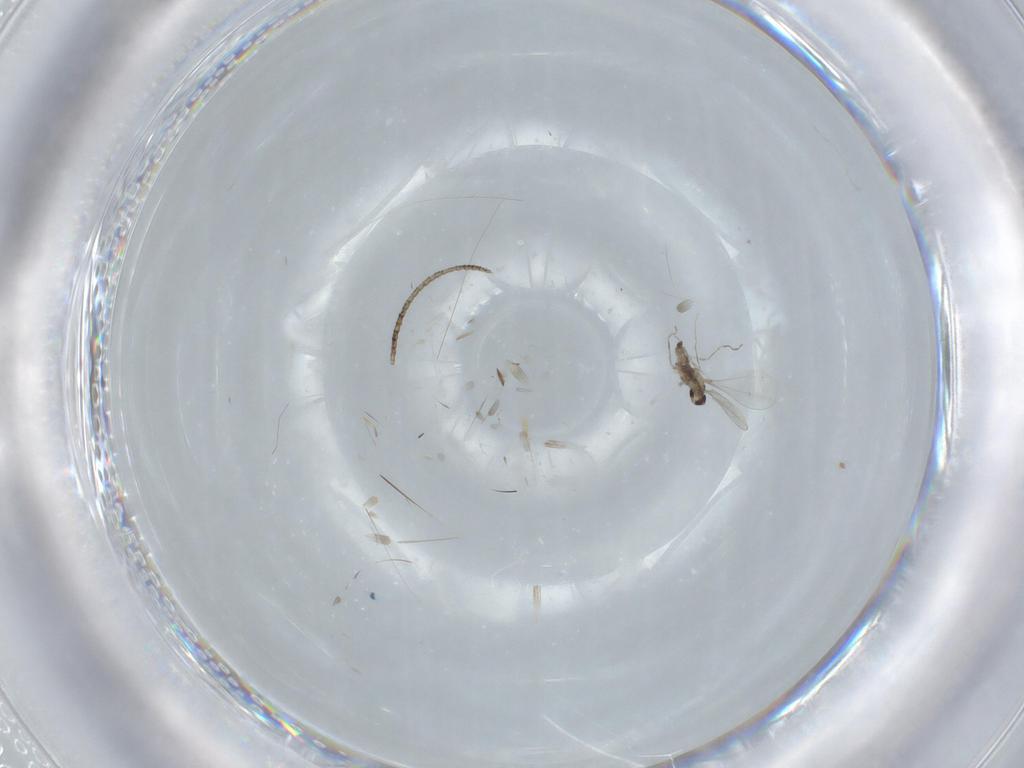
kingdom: Animalia
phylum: Arthropoda
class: Insecta
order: Diptera
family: Cecidomyiidae
